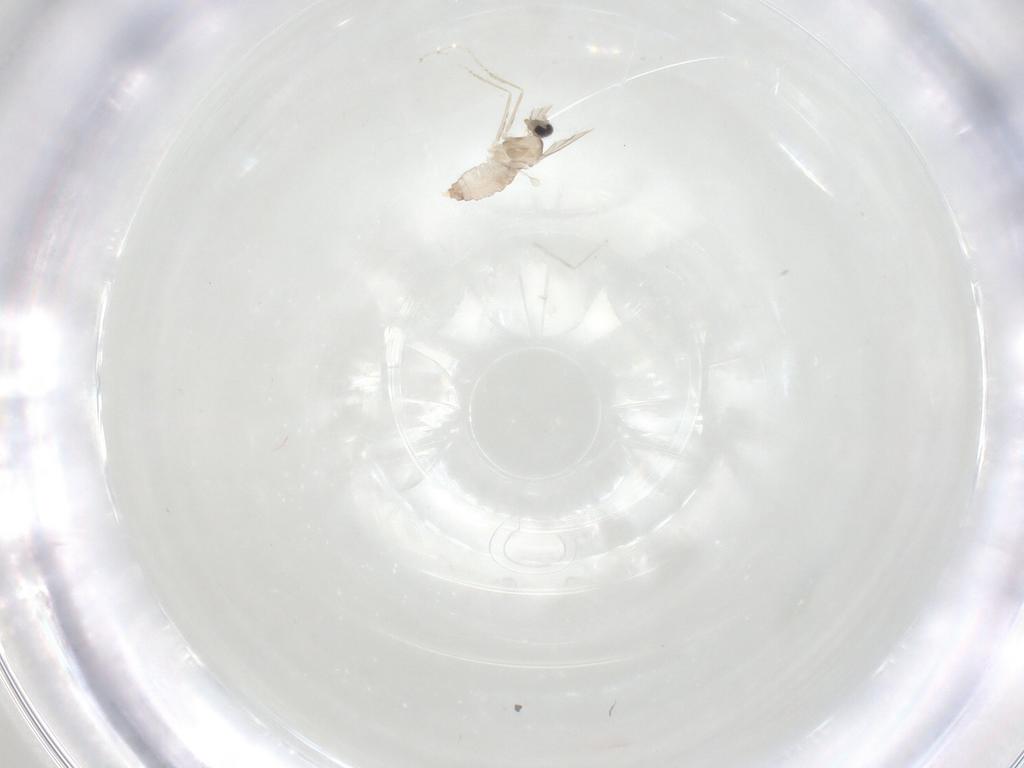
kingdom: Animalia
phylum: Arthropoda
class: Insecta
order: Diptera
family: Cecidomyiidae
